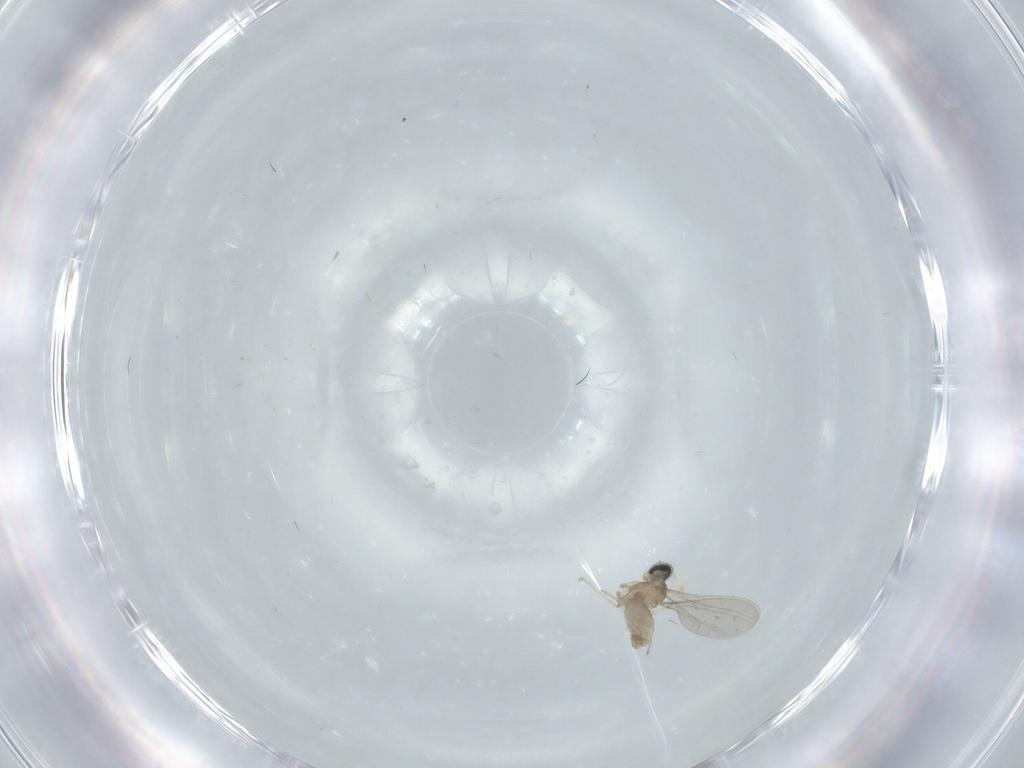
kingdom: Animalia
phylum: Arthropoda
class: Insecta
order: Diptera
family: Cecidomyiidae
